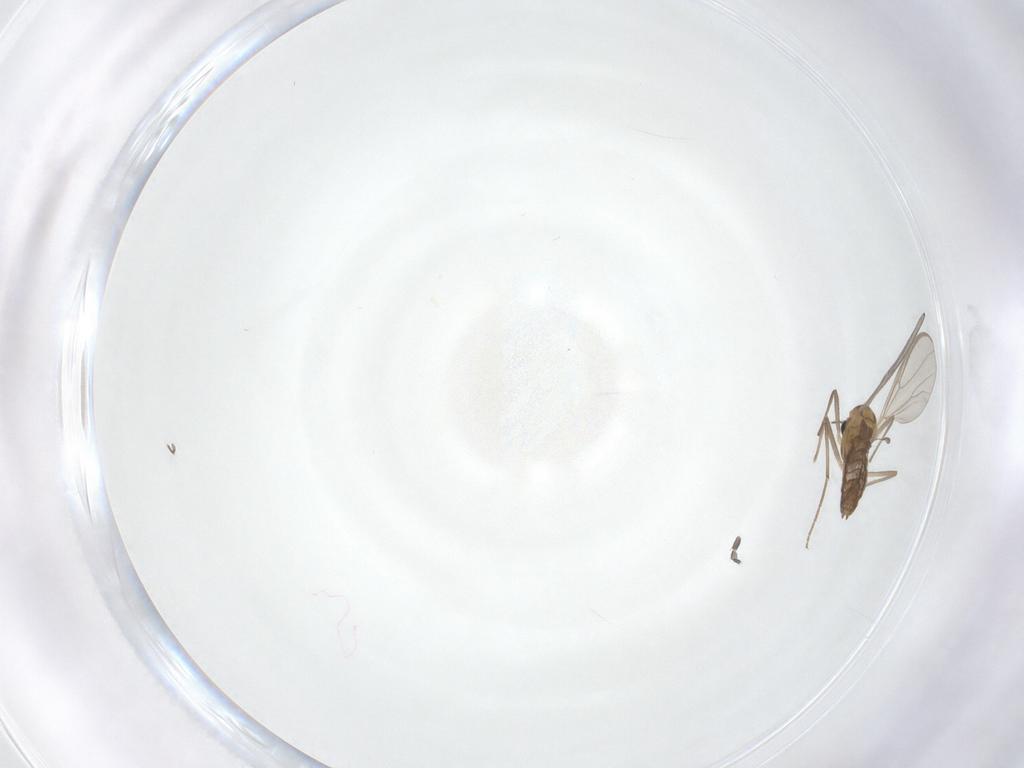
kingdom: Animalia
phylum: Arthropoda
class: Insecta
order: Diptera
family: Chironomidae
